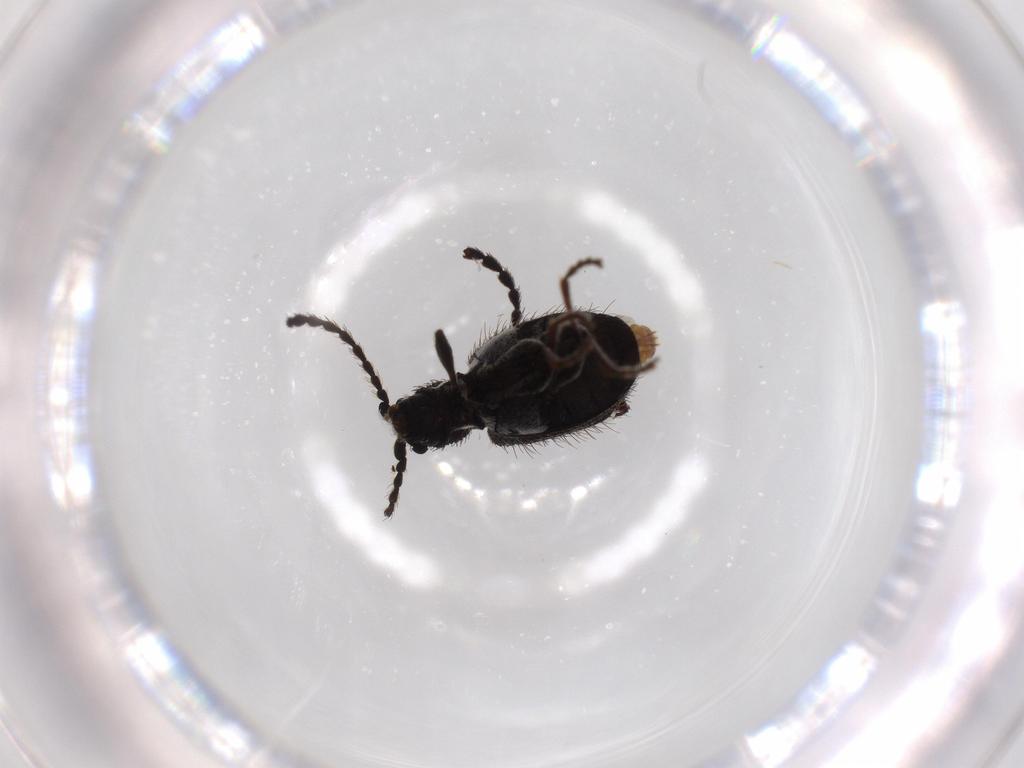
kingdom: Animalia
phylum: Arthropoda
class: Insecta
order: Coleoptera
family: Ptinidae
